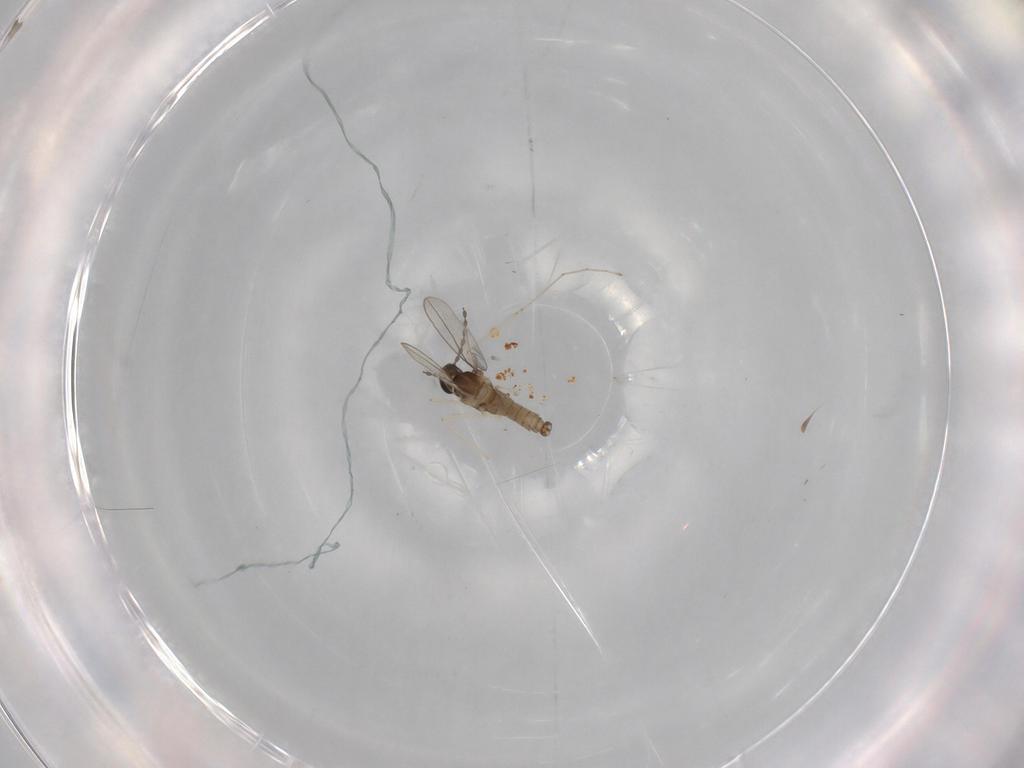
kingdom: Animalia
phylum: Arthropoda
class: Insecta
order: Diptera
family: Cecidomyiidae
